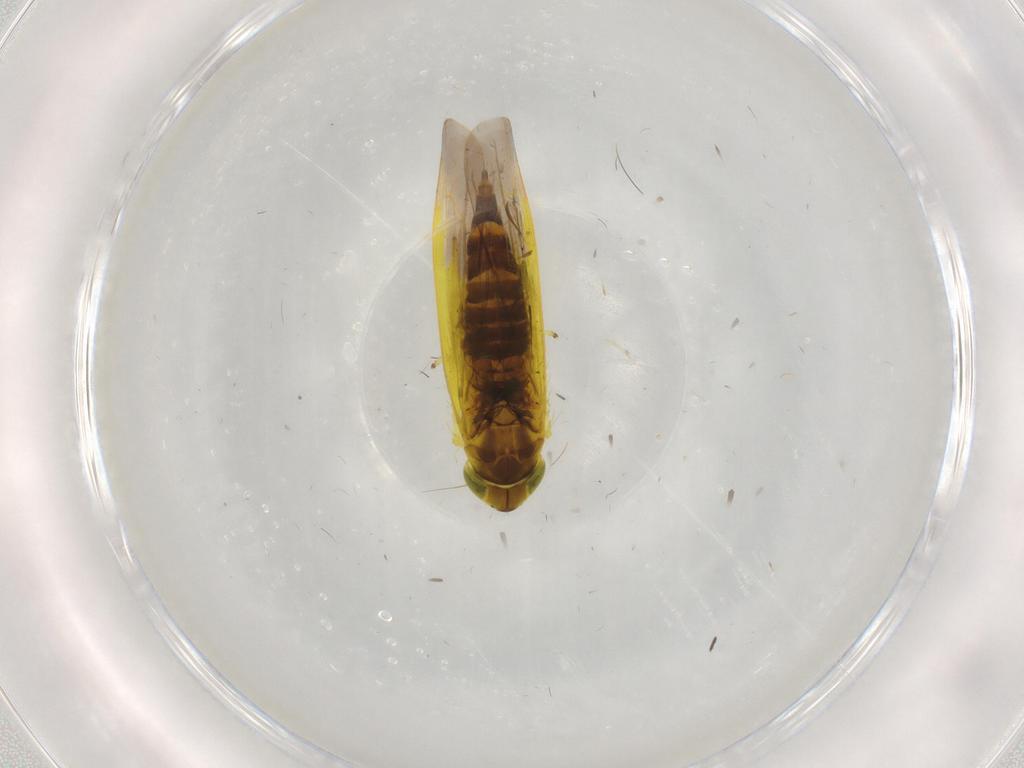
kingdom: Animalia
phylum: Arthropoda
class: Insecta
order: Hemiptera
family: Cicadellidae
